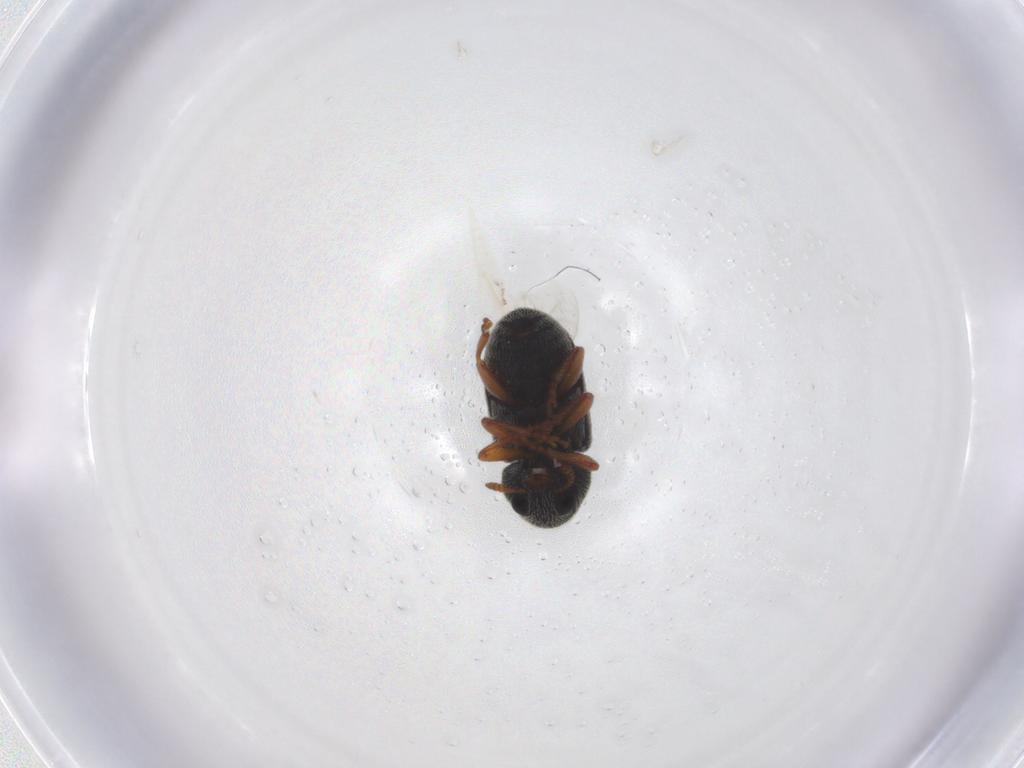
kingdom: Animalia
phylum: Arthropoda
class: Insecta
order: Coleoptera
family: Anthribidae
